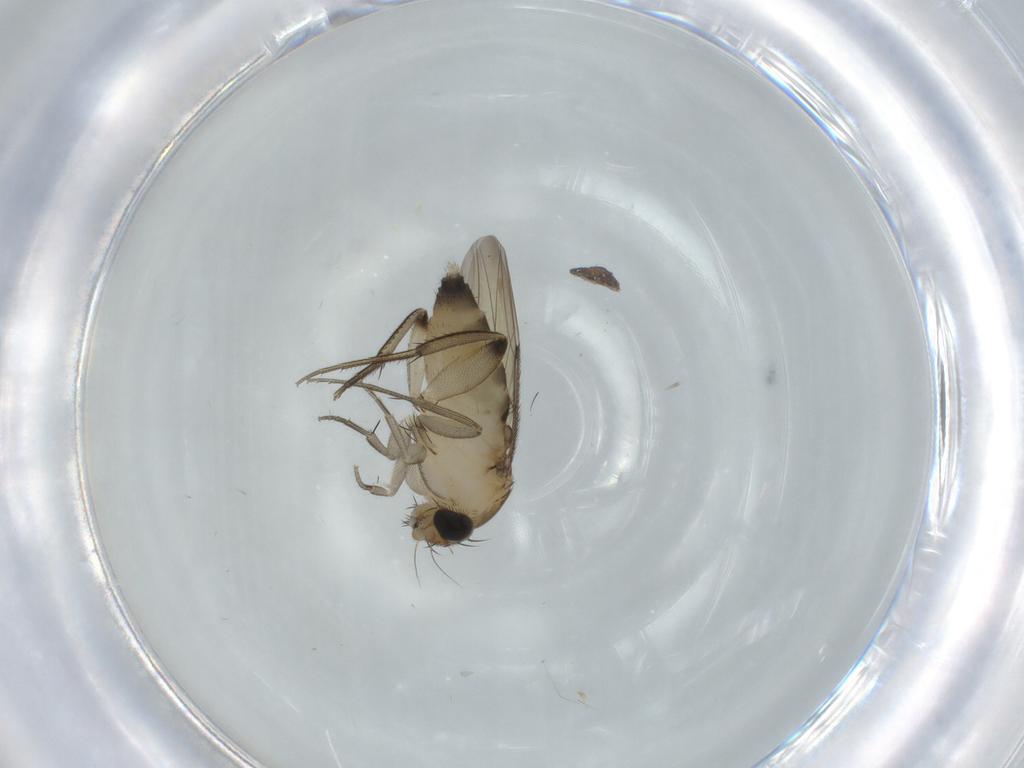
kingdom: Animalia
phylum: Arthropoda
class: Insecta
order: Diptera
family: Phoridae
